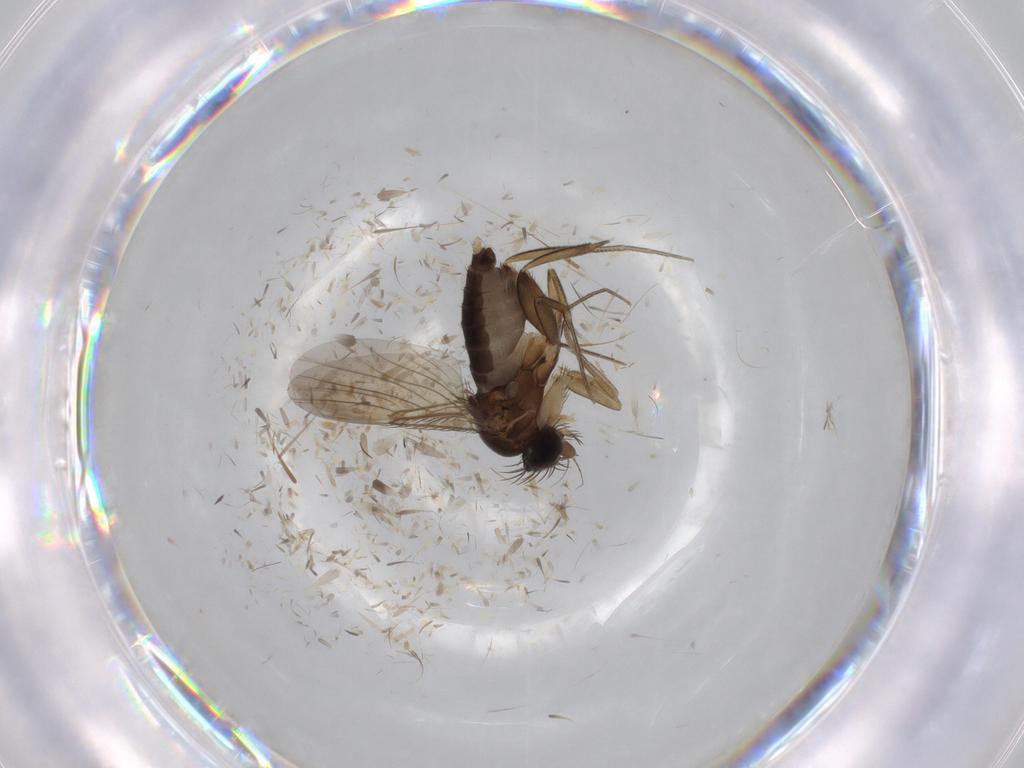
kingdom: Animalia
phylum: Arthropoda
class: Insecta
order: Diptera
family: Phoridae
